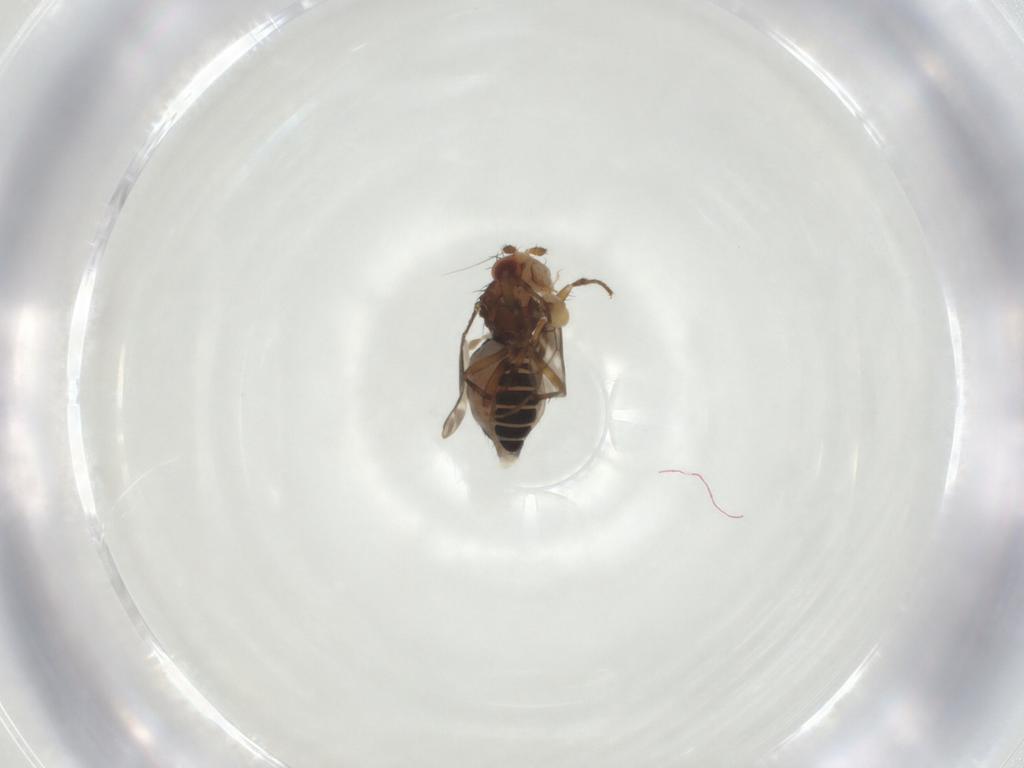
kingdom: Animalia
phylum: Arthropoda
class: Insecta
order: Diptera
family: Sphaeroceridae
